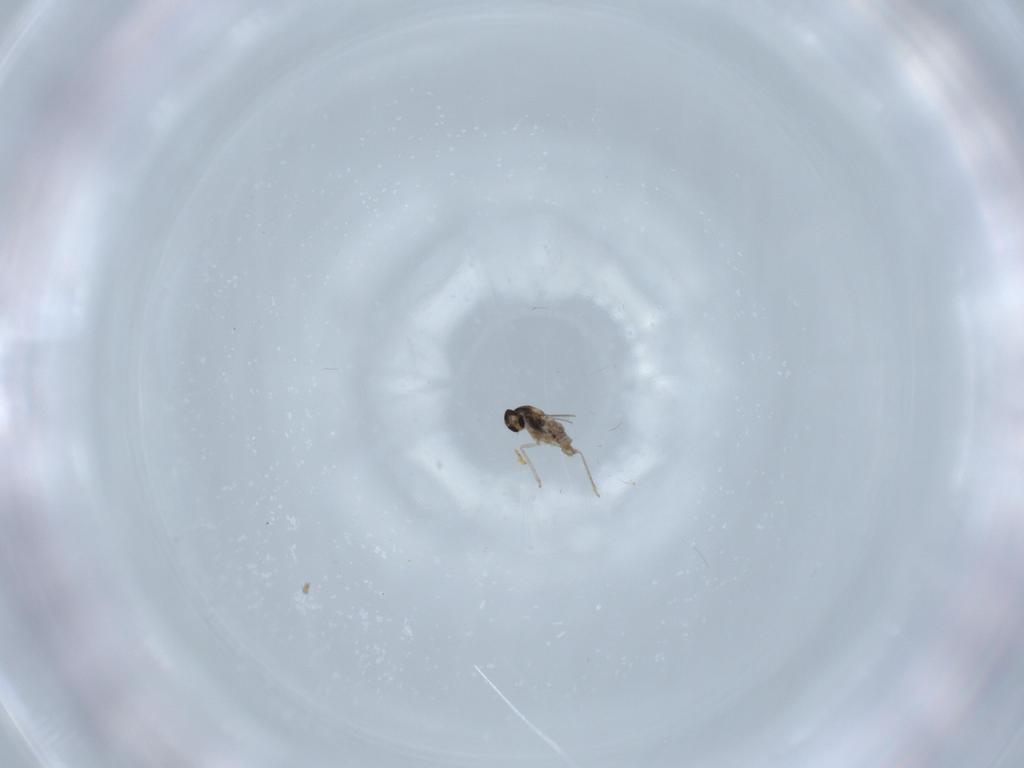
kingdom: Animalia
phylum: Arthropoda
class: Insecta
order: Diptera
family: Cecidomyiidae
